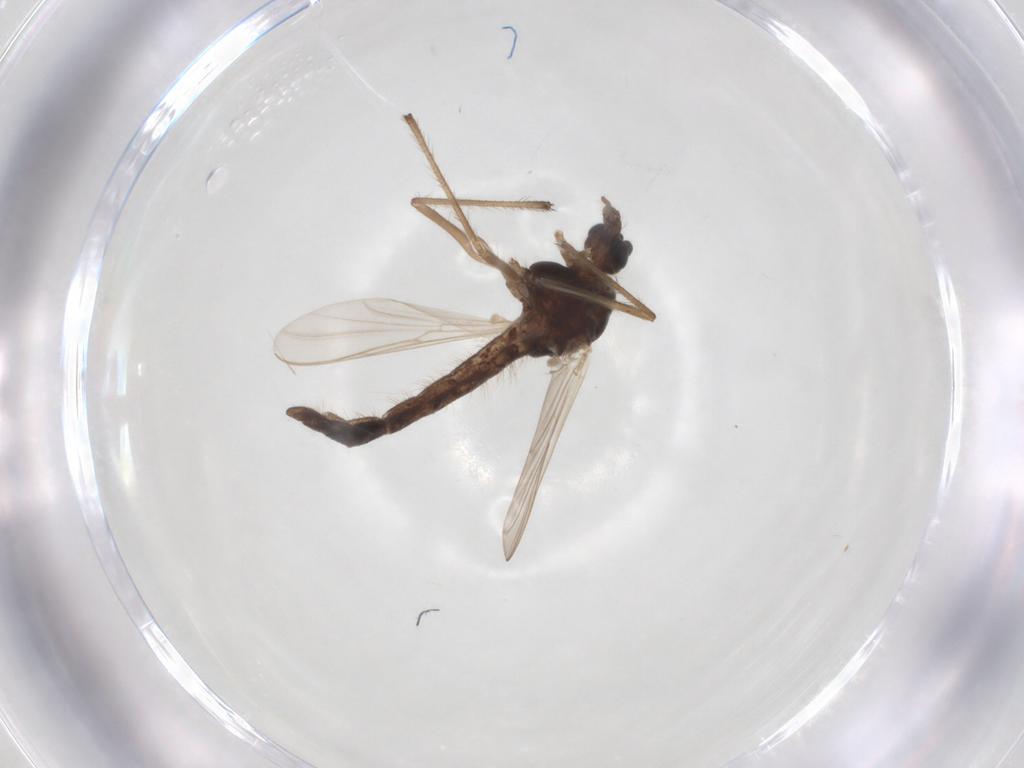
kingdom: Animalia
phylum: Arthropoda
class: Insecta
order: Diptera
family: Chironomidae
